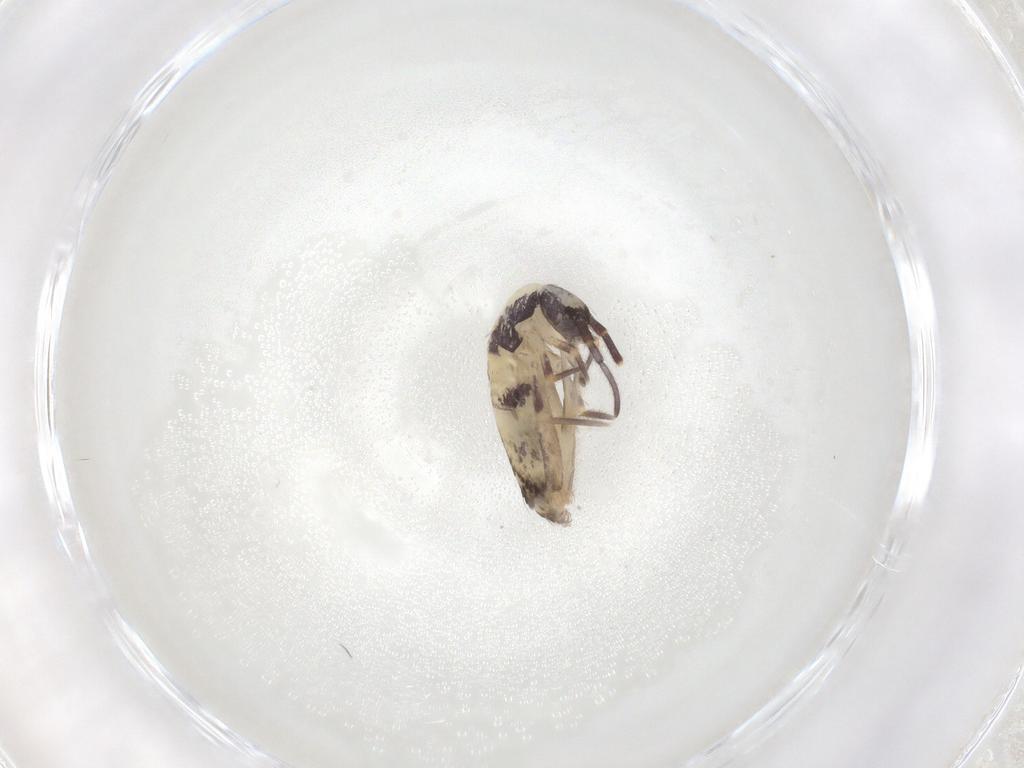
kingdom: Animalia
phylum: Arthropoda
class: Collembola
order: Entomobryomorpha
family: Entomobryidae
